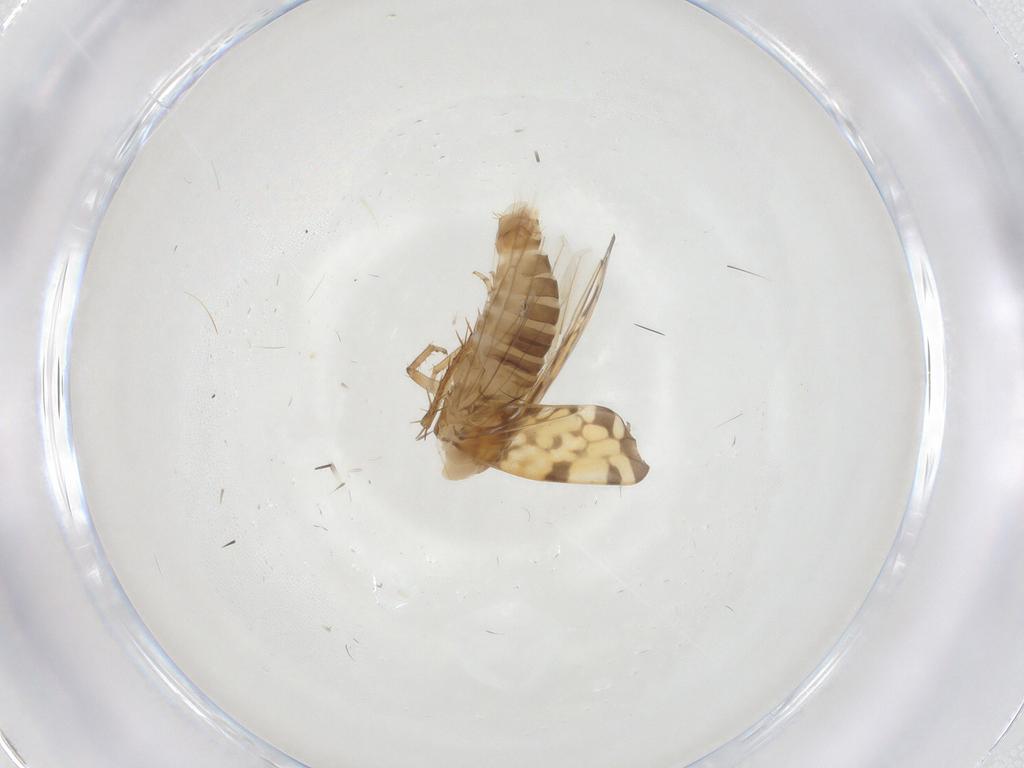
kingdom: Animalia
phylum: Arthropoda
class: Insecta
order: Hemiptera
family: Cicadellidae
